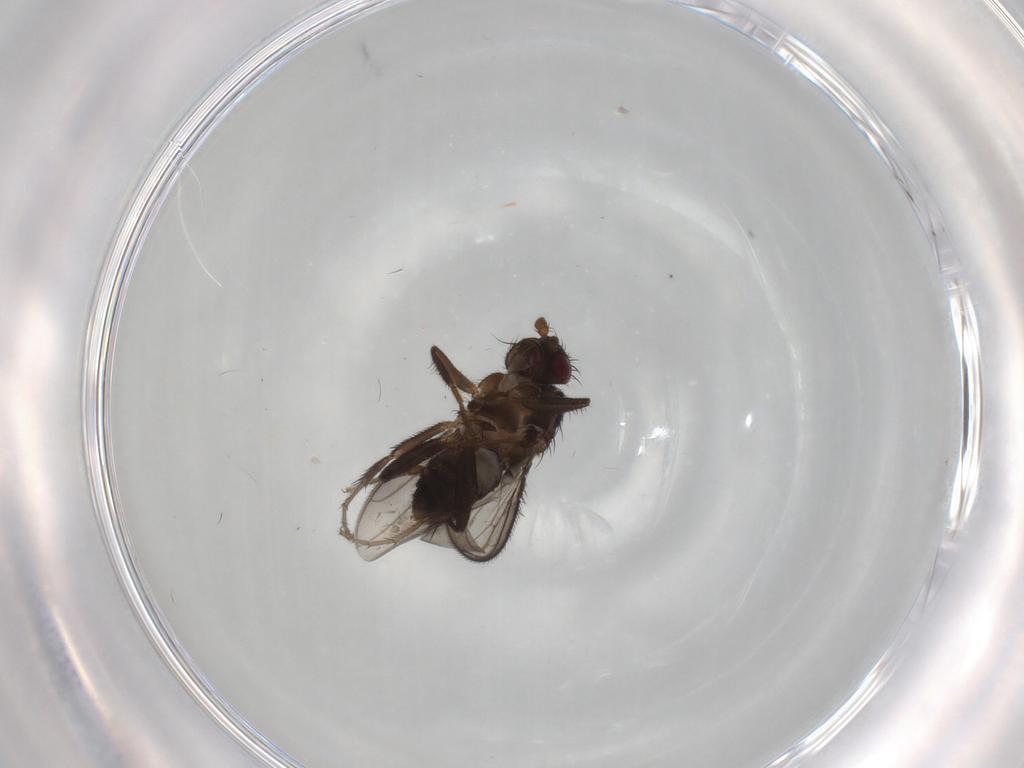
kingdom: Animalia
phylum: Arthropoda
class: Insecta
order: Diptera
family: Sphaeroceridae
